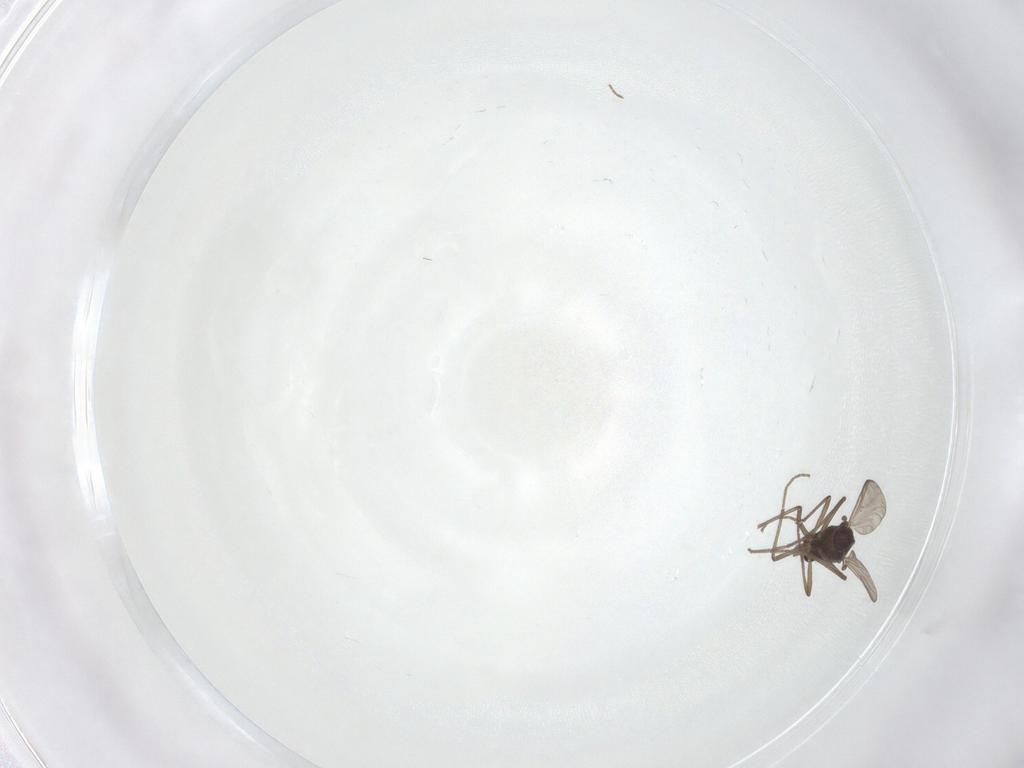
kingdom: Animalia
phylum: Arthropoda
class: Insecta
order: Diptera
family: Chironomidae
